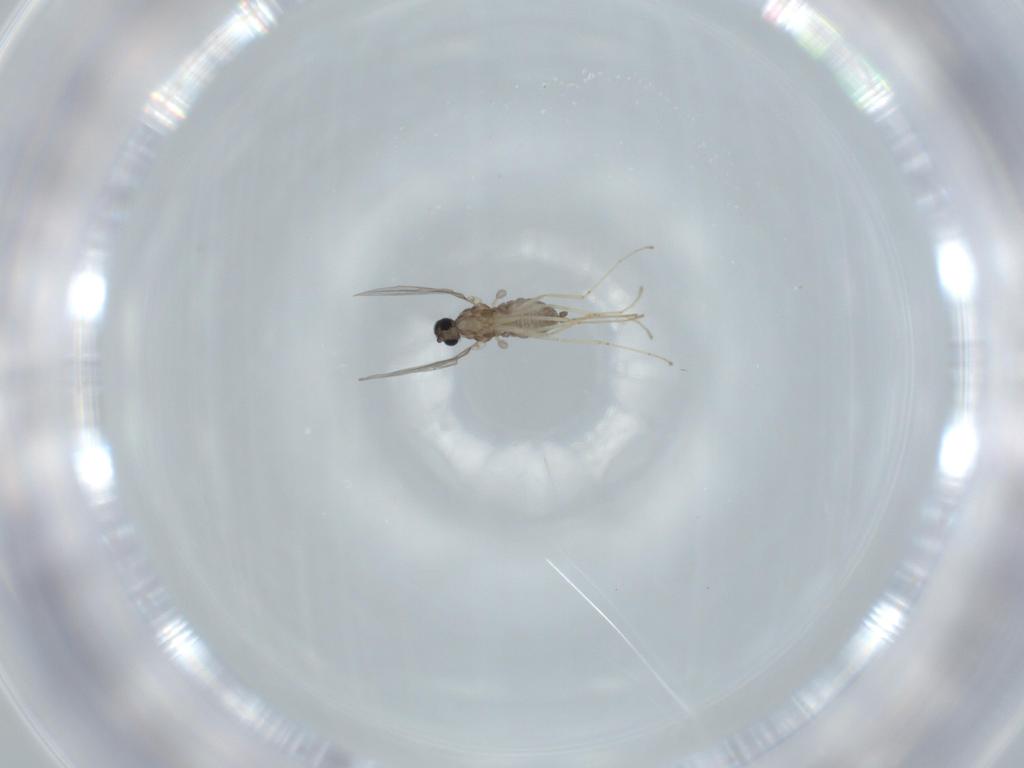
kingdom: Animalia
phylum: Arthropoda
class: Insecta
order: Diptera
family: Cecidomyiidae
